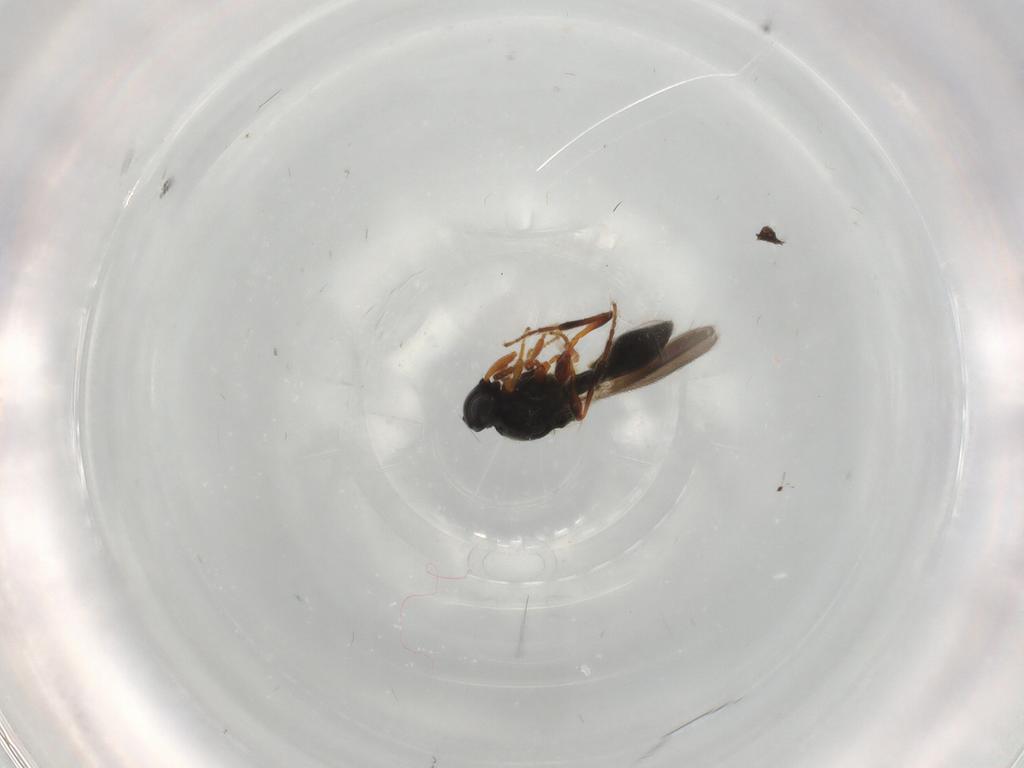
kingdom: Animalia
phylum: Arthropoda
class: Insecta
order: Hymenoptera
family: Platygastridae
